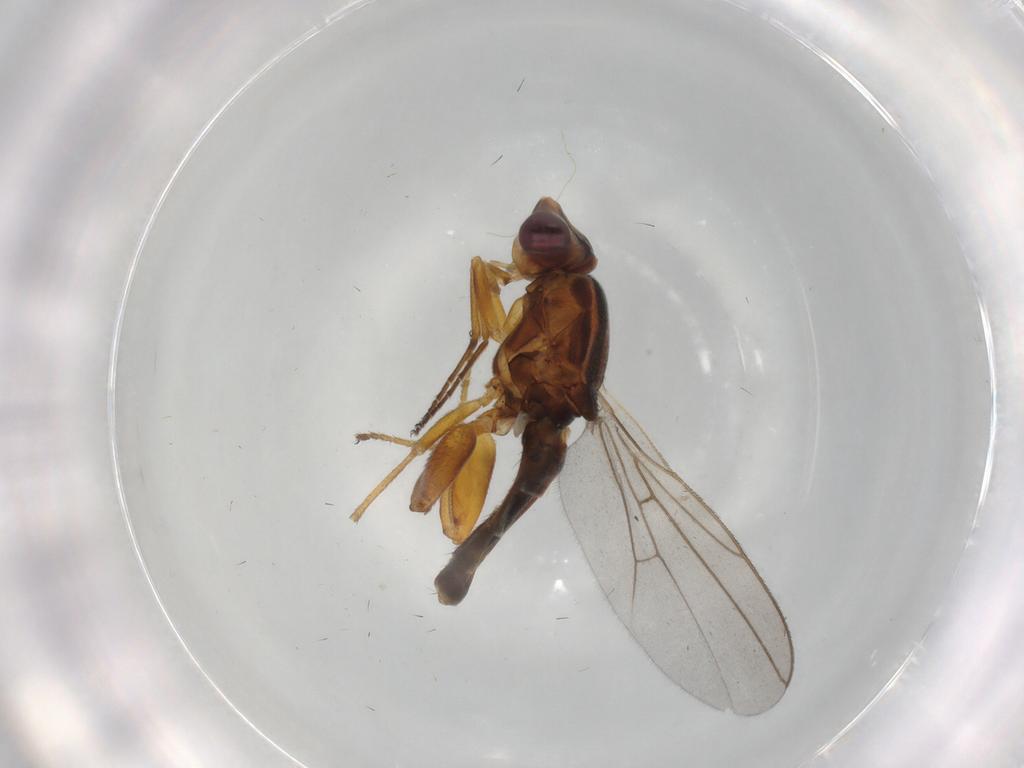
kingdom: Animalia
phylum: Arthropoda
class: Insecta
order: Diptera
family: Chloropidae
